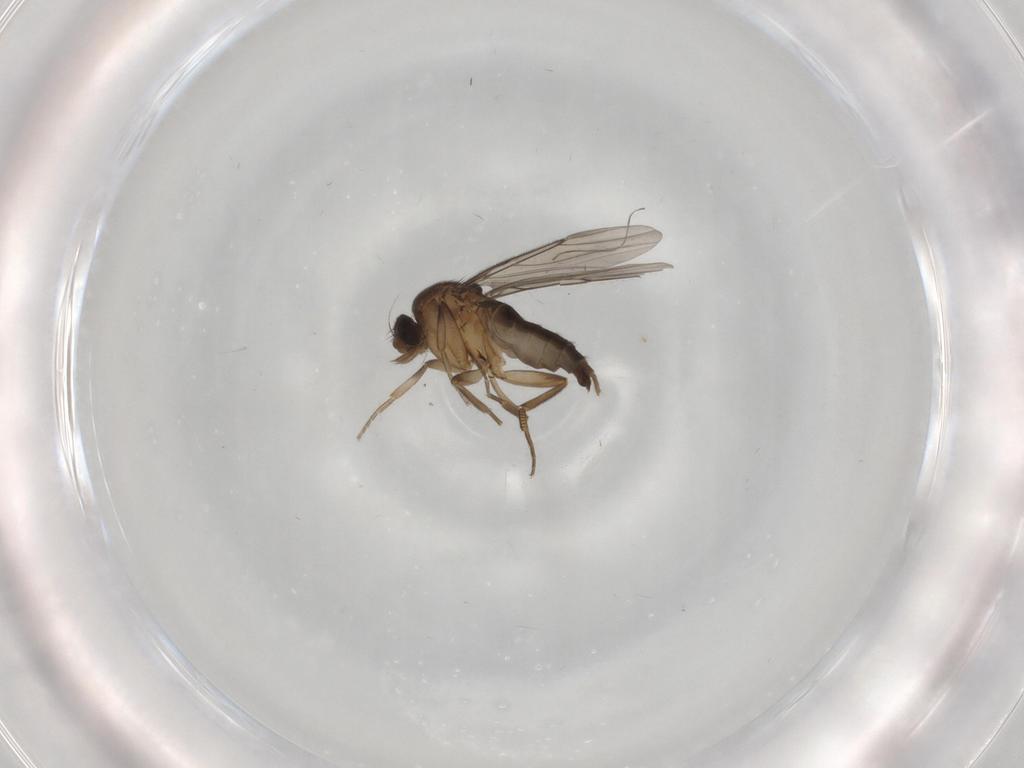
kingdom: Animalia
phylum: Arthropoda
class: Insecta
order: Diptera
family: Phoridae
